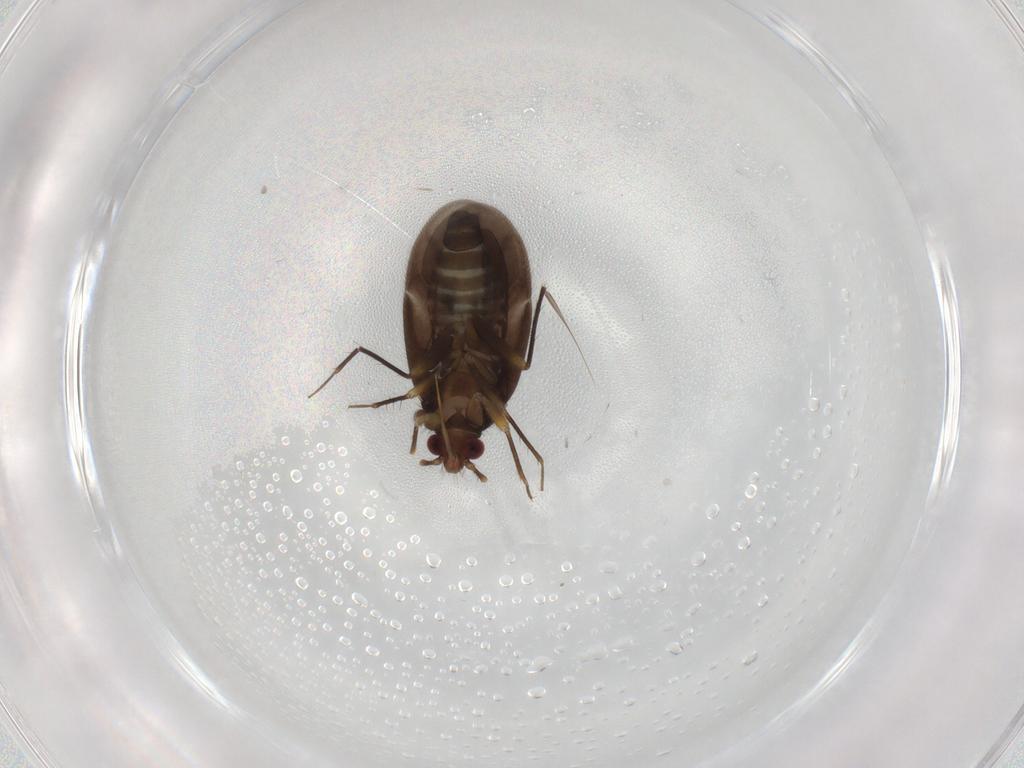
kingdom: Animalia
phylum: Arthropoda
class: Insecta
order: Hemiptera
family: Ceratocombidae
